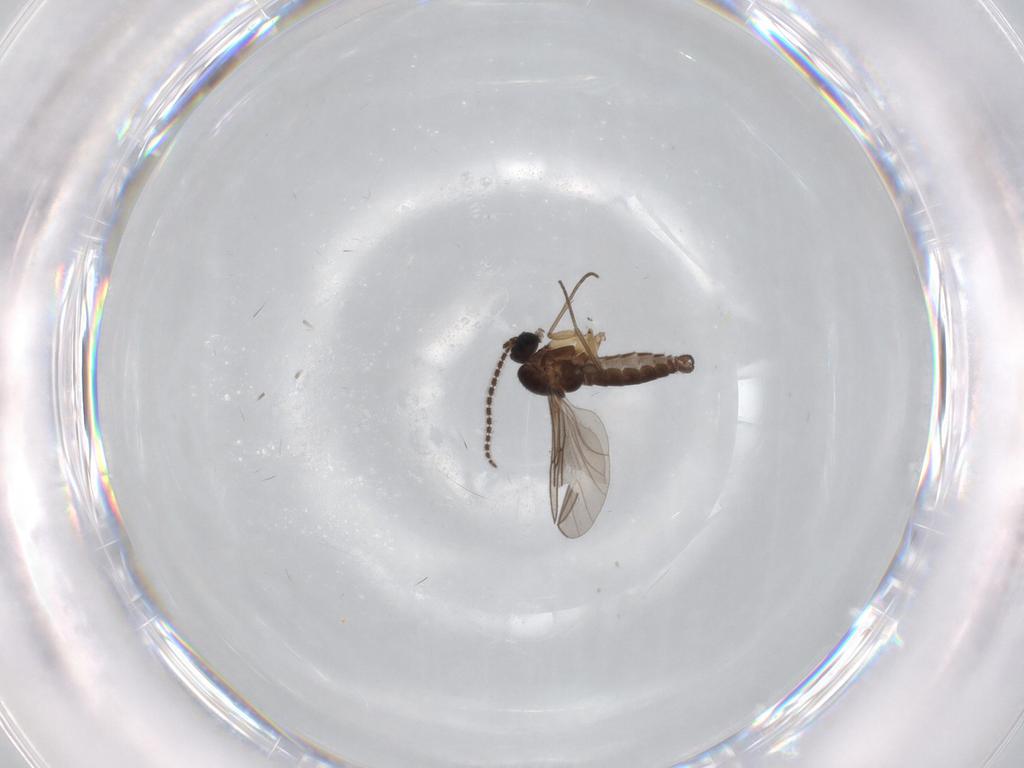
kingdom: Animalia
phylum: Arthropoda
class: Insecta
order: Diptera
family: Sciaridae
